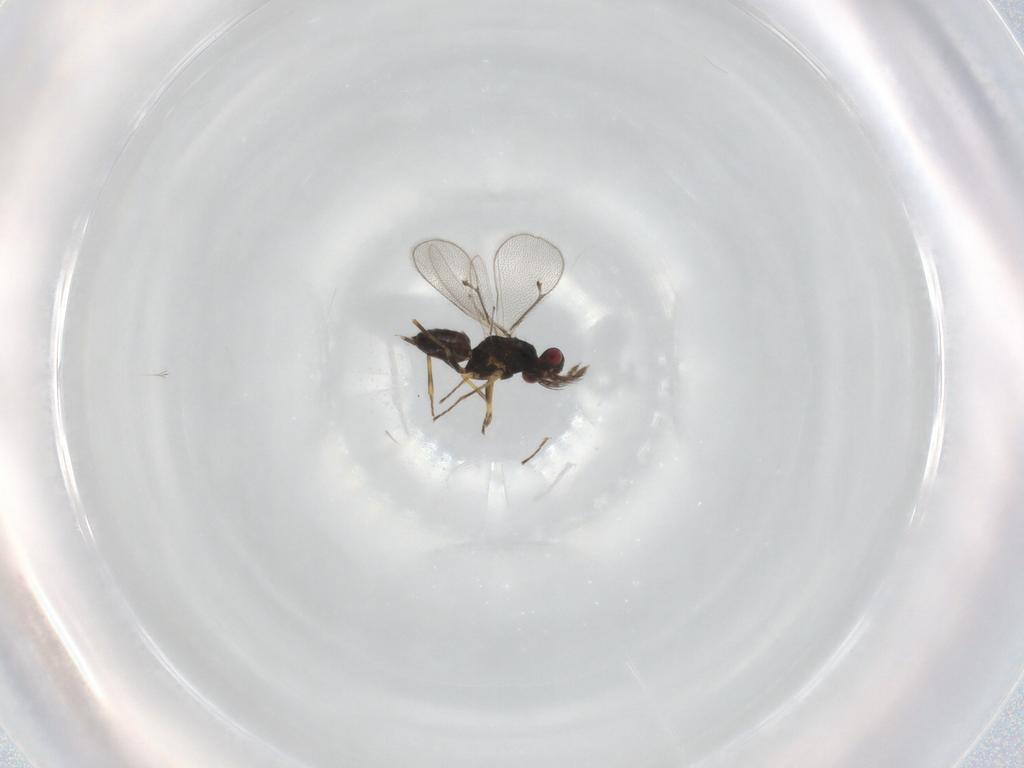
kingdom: Animalia
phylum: Arthropoda
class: Insecta
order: Hymenoptera
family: Eulophidae
